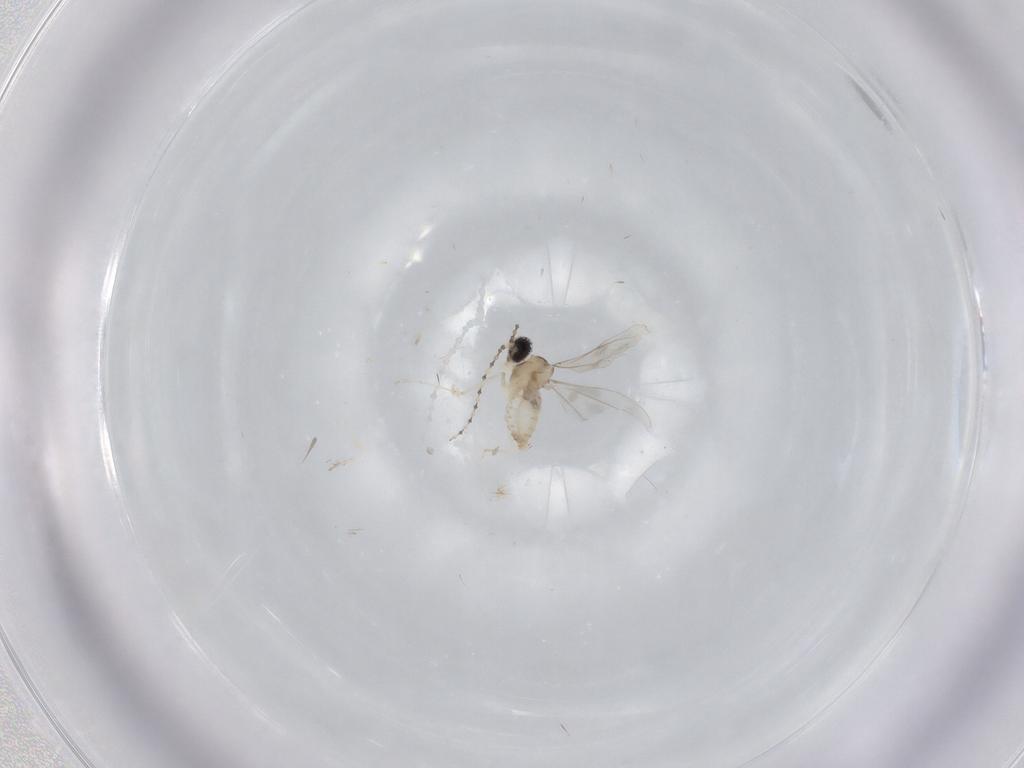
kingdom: Animalia
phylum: Arthropoda
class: Insecta
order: Diptera
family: Cecidomyiidae
